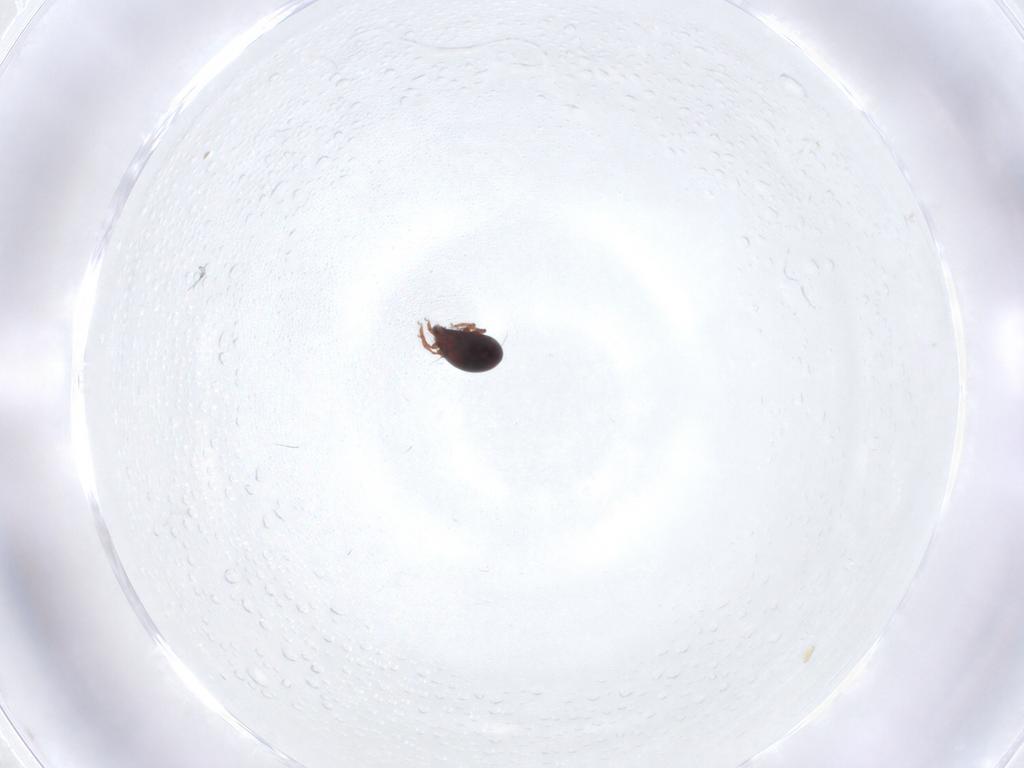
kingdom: Animalia
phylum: Arthropoda
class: Arachnida
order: Sarcoptiformes
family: Ceratozetidae
